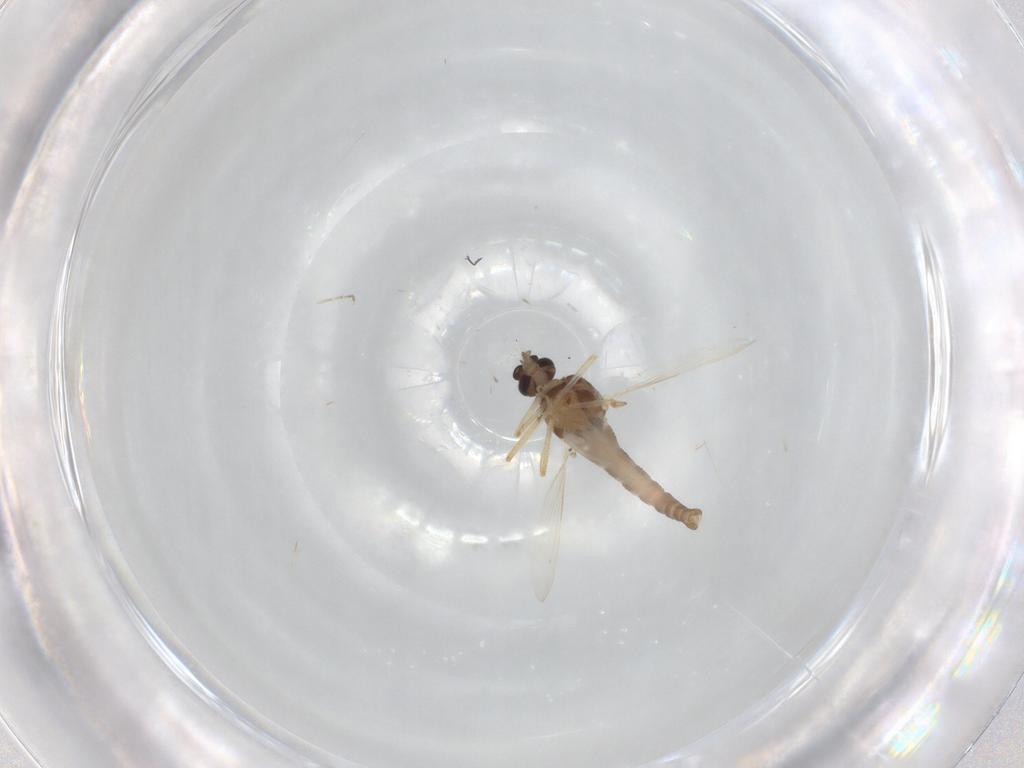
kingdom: Animalia
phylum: Arthropoda
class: Insecta
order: Diptera
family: Ceratopogonidae
